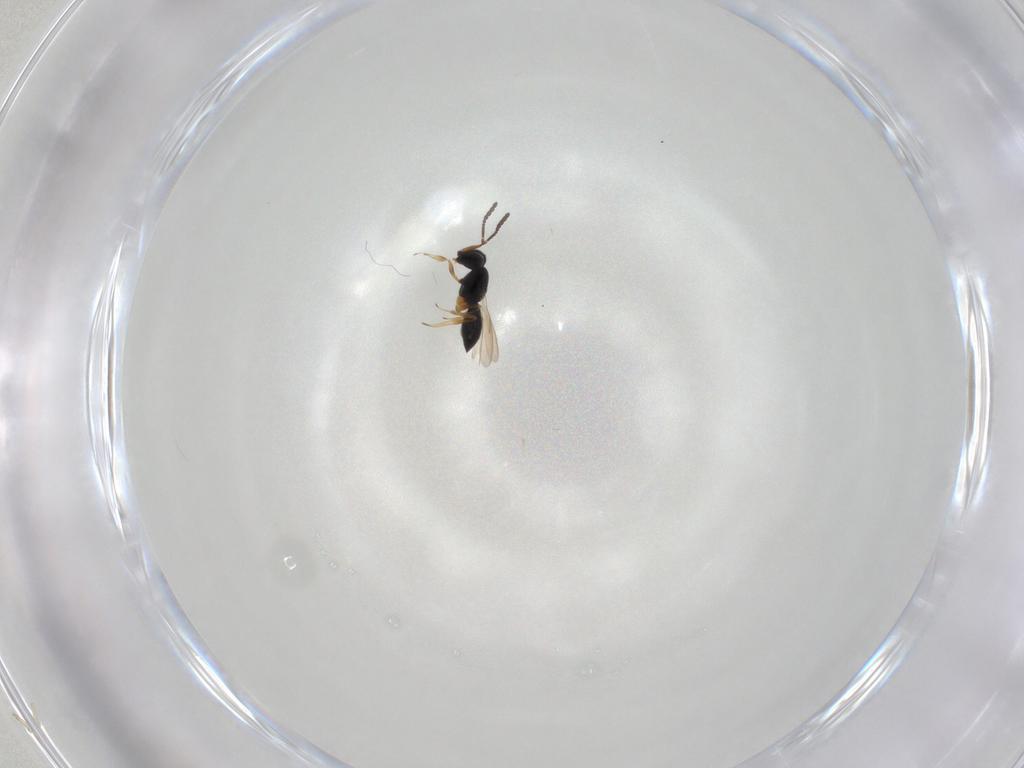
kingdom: Animalia
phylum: Arthropoda
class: Insecta
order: Hymenoptera
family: Scelionidae
